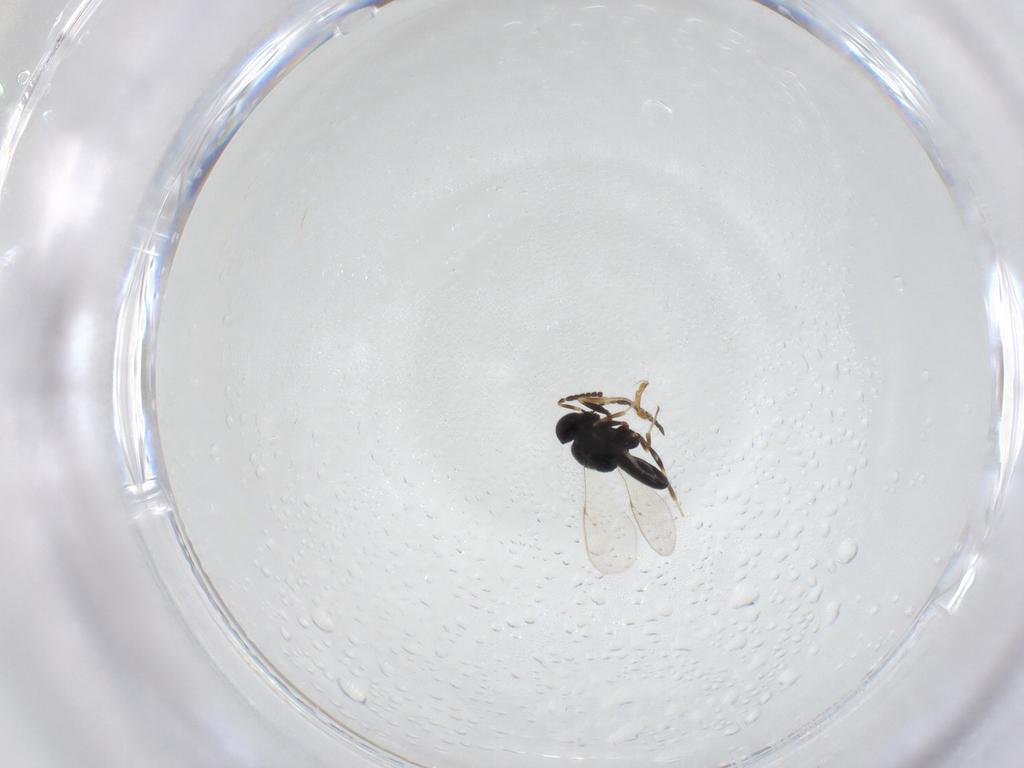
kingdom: Animalia
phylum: Arthropoda
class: Insecta
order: Hymenoptera
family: Scelionidae
